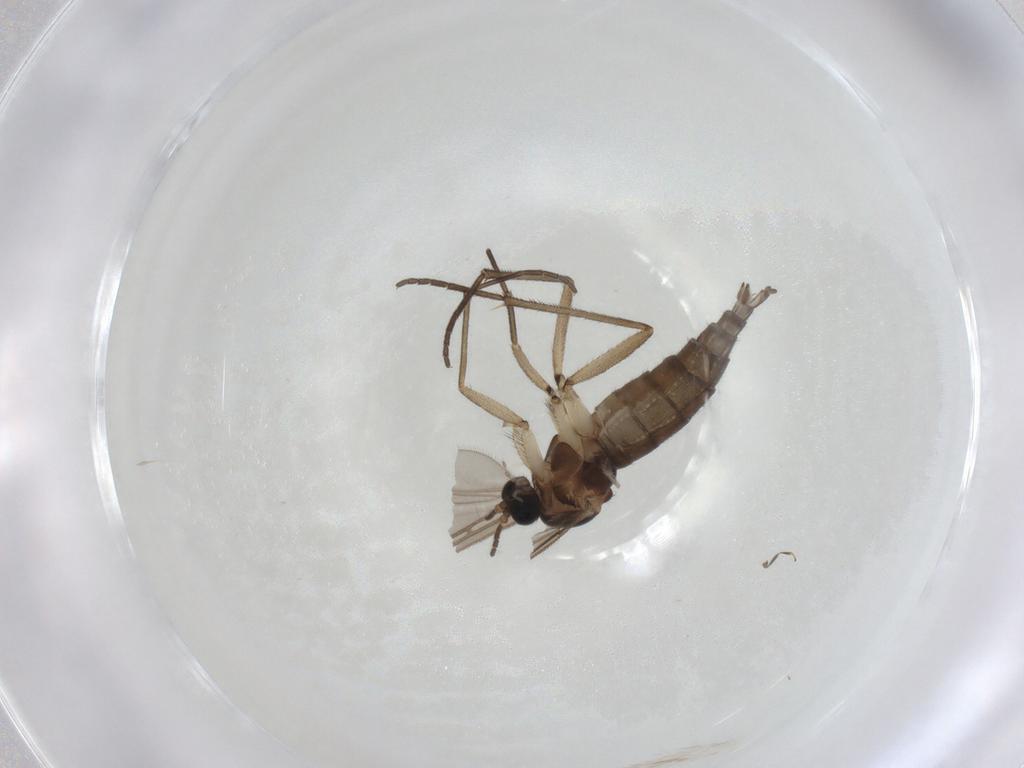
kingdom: Animalia
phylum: Arthropoda
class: Insecta
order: Diptera
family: Sciaridae
